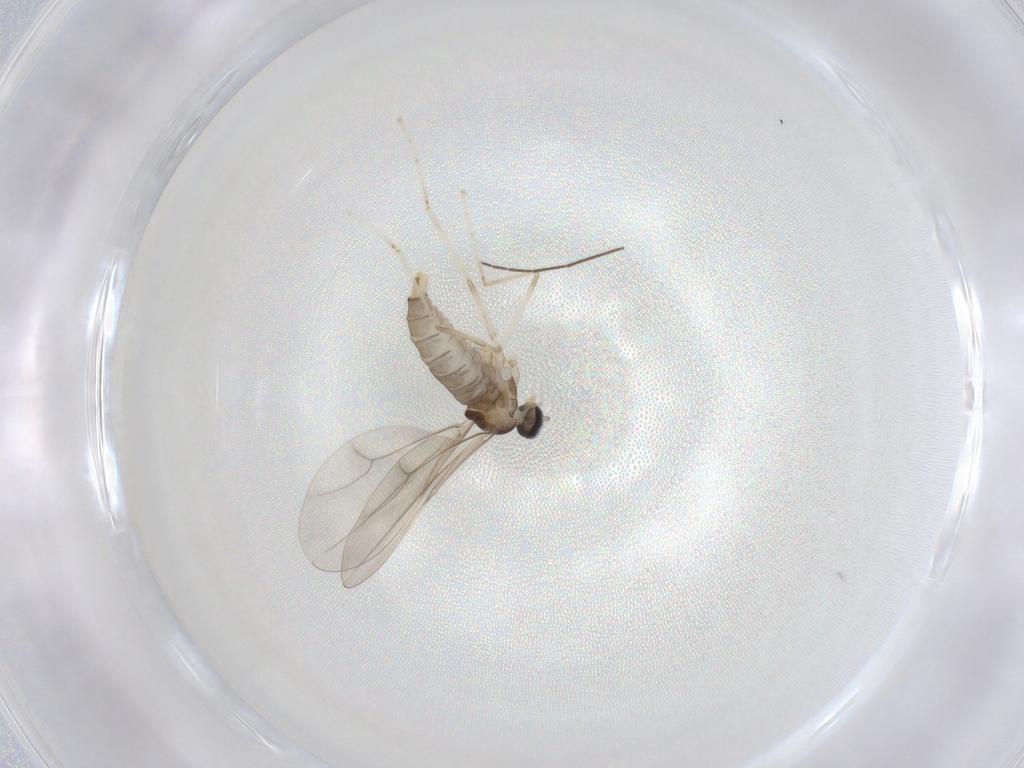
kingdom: Animalia
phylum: Arthropoda
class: Insecta
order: Diptera
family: Cecidomyiidae
